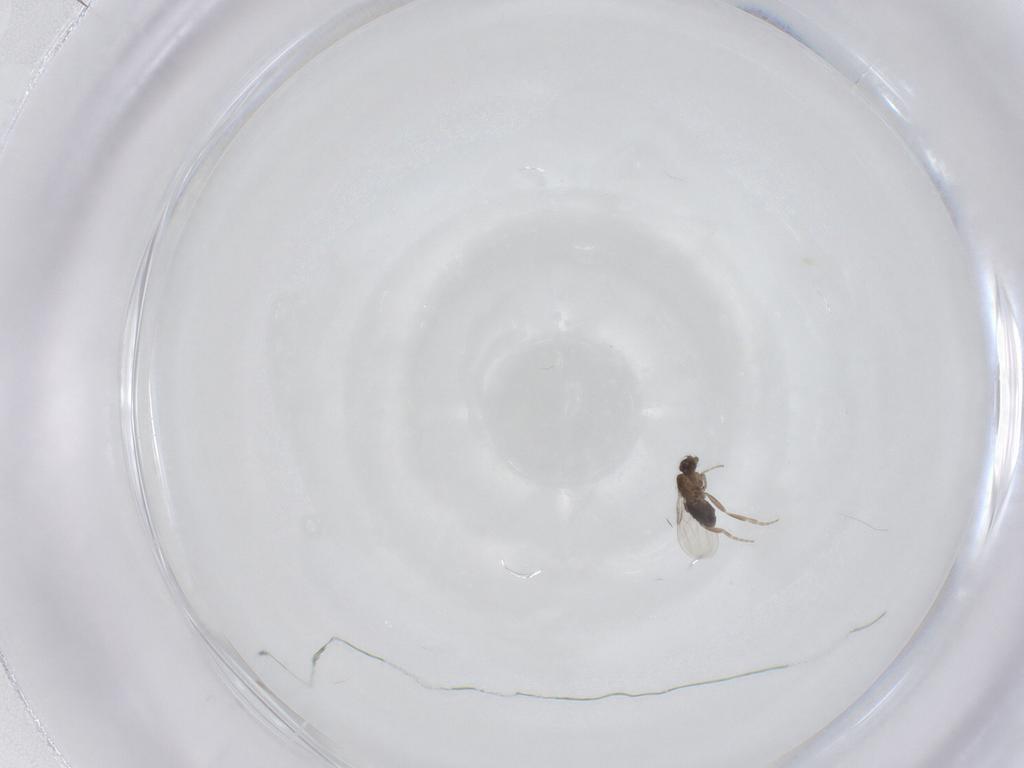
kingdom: Animalia
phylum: Arthropoda
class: Insecta
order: Diptera
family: Phoridae
